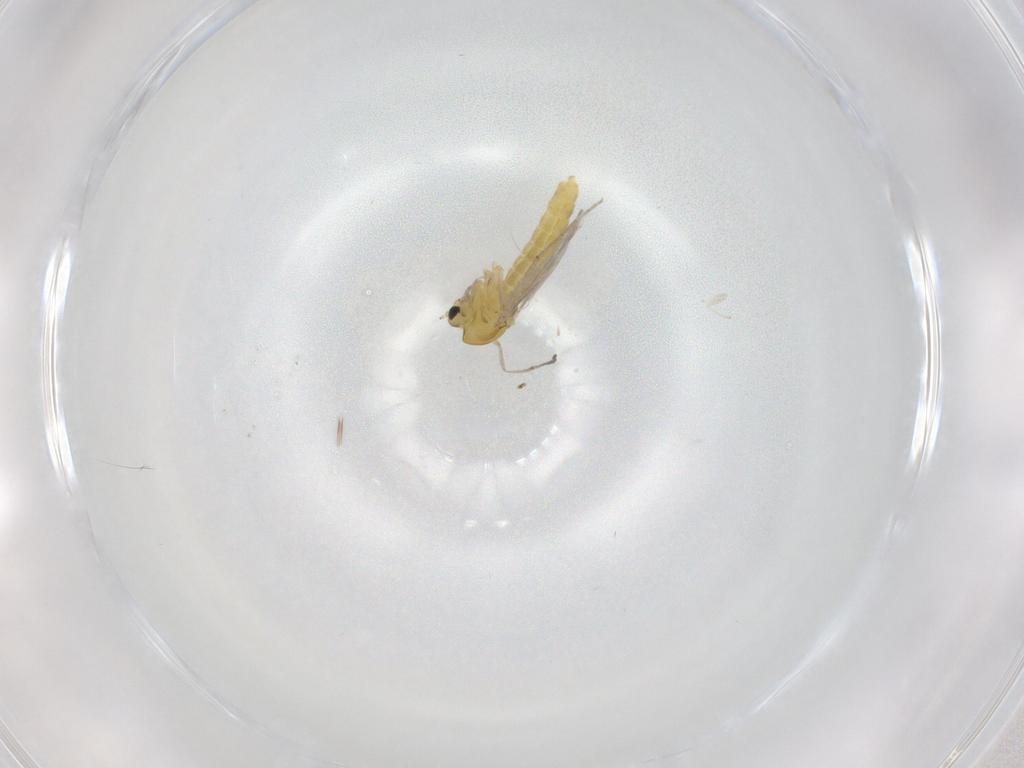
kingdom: Animalia
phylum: Arthropoda
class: Insecta
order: Diptera
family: Chironomidae
